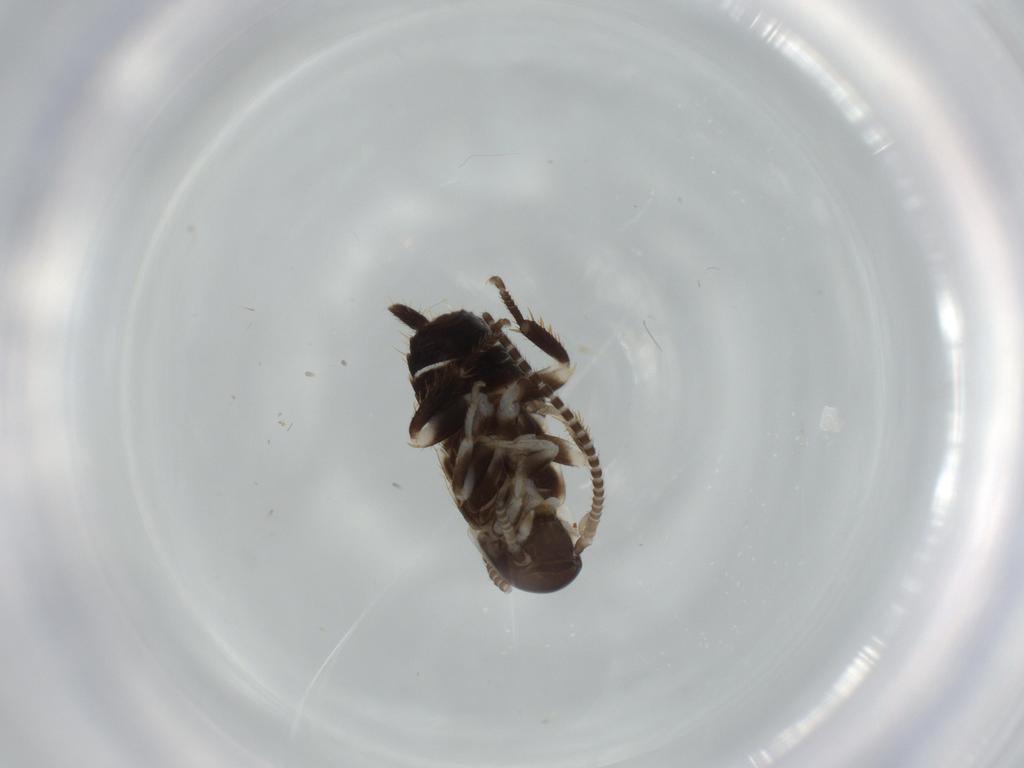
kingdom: Animalia
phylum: Arthropoda
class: Insecta
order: Blattodea
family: Ectobiidae
